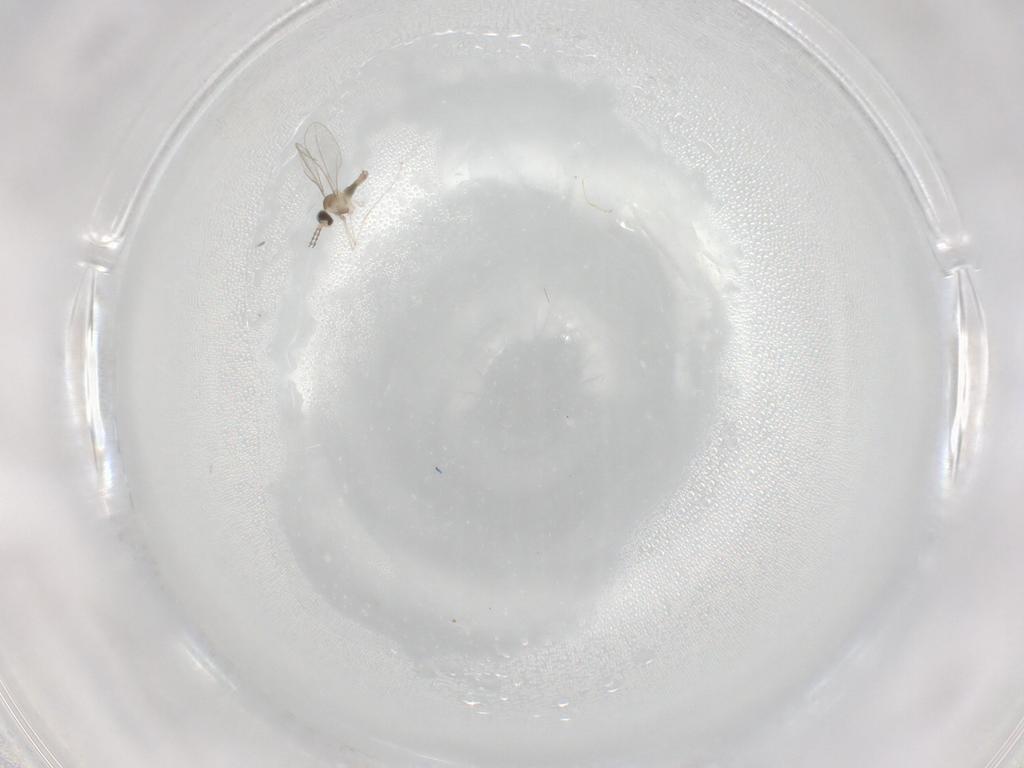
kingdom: Animalia
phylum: Arthropoda
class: Insecta
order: Diptera
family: Cecidomyiidae
